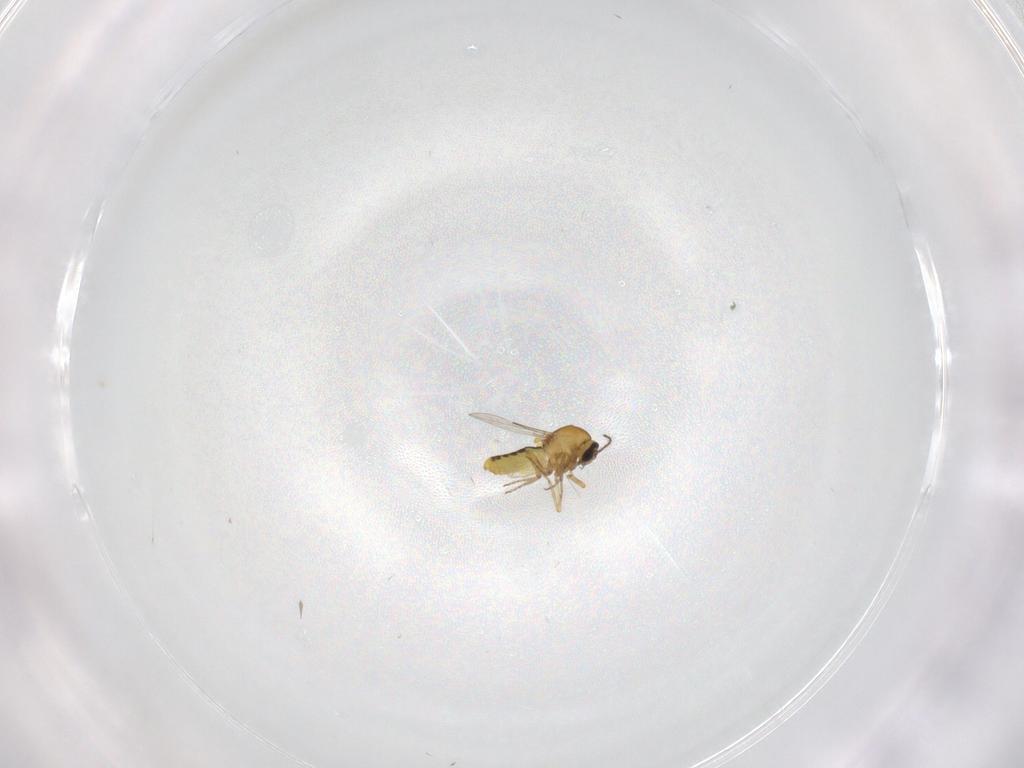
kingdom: Animalia
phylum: Arthropoda
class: Insecta
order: Diptera
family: Ceratopogonidae
